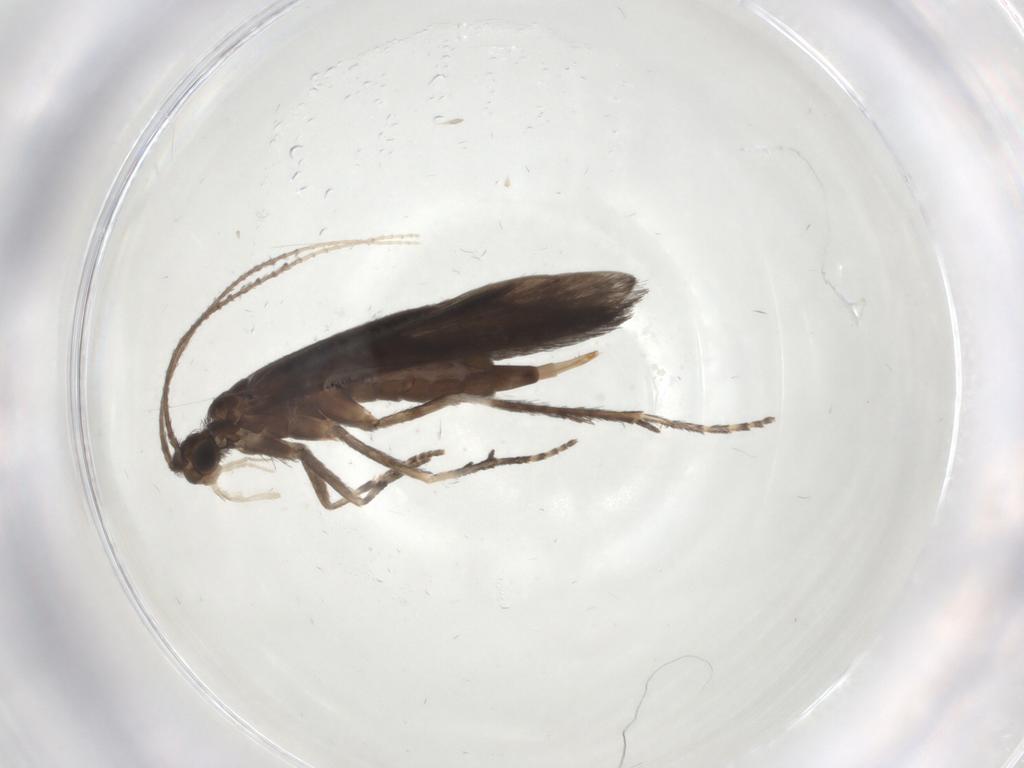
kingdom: Animalia
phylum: Arthropoda
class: Insecta
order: Trichoptera
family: Xiphocentronidae
